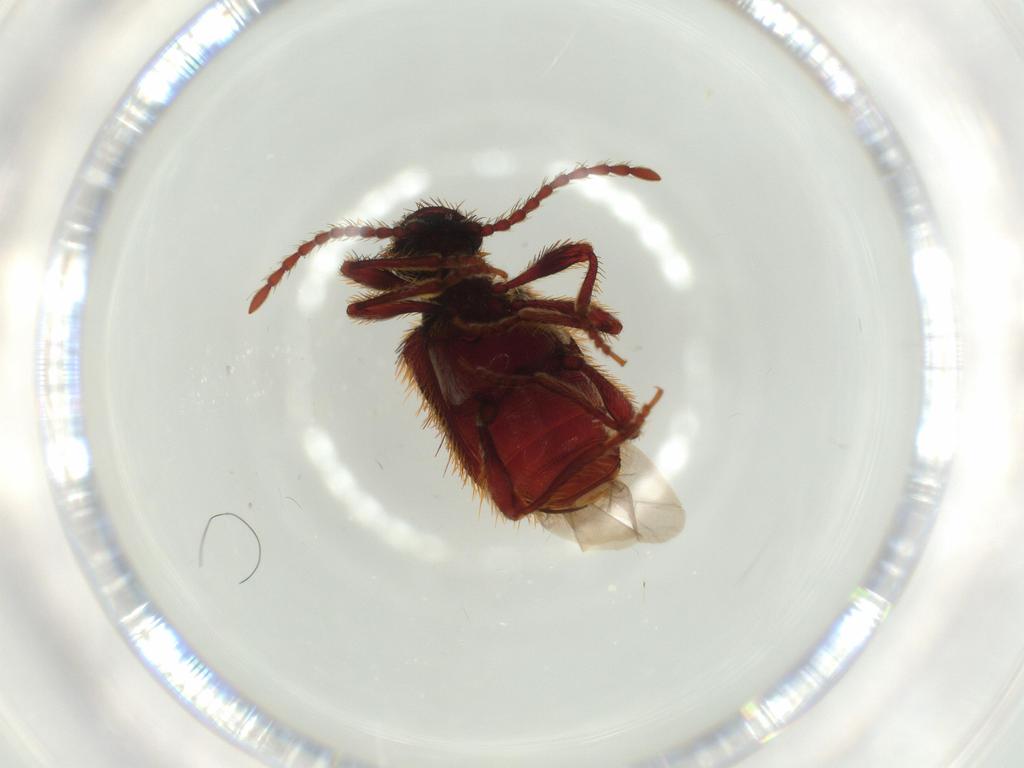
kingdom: Animalia
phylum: Arthropoda
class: Insecta
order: Coleoptera
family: Ptinidae
